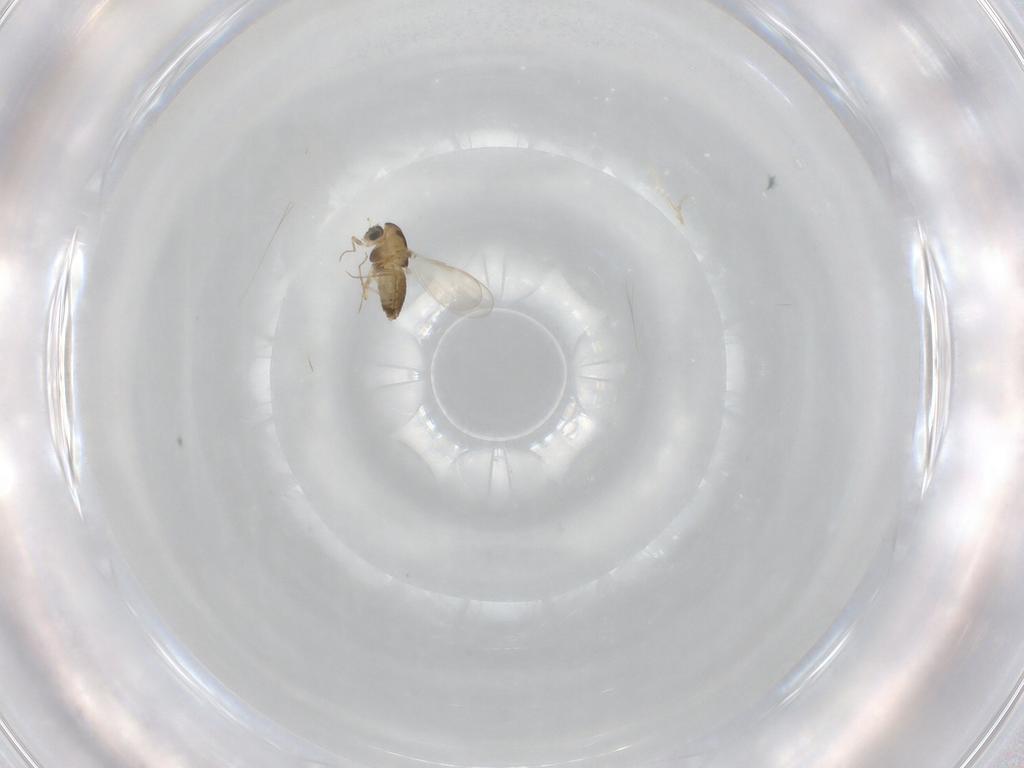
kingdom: Animalia
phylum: Arthropoda
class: Insecta
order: Diptera
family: Chironomidae
